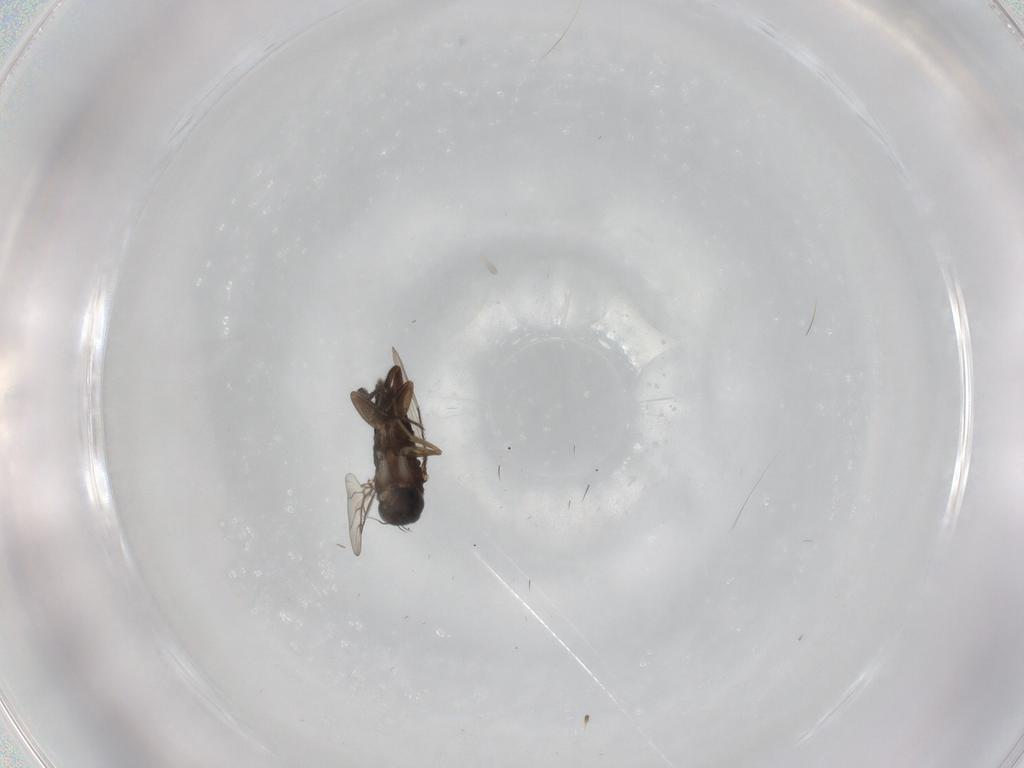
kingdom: Animalia
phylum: Arthropoda
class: Insecta
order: Diptera
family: Phoridae
